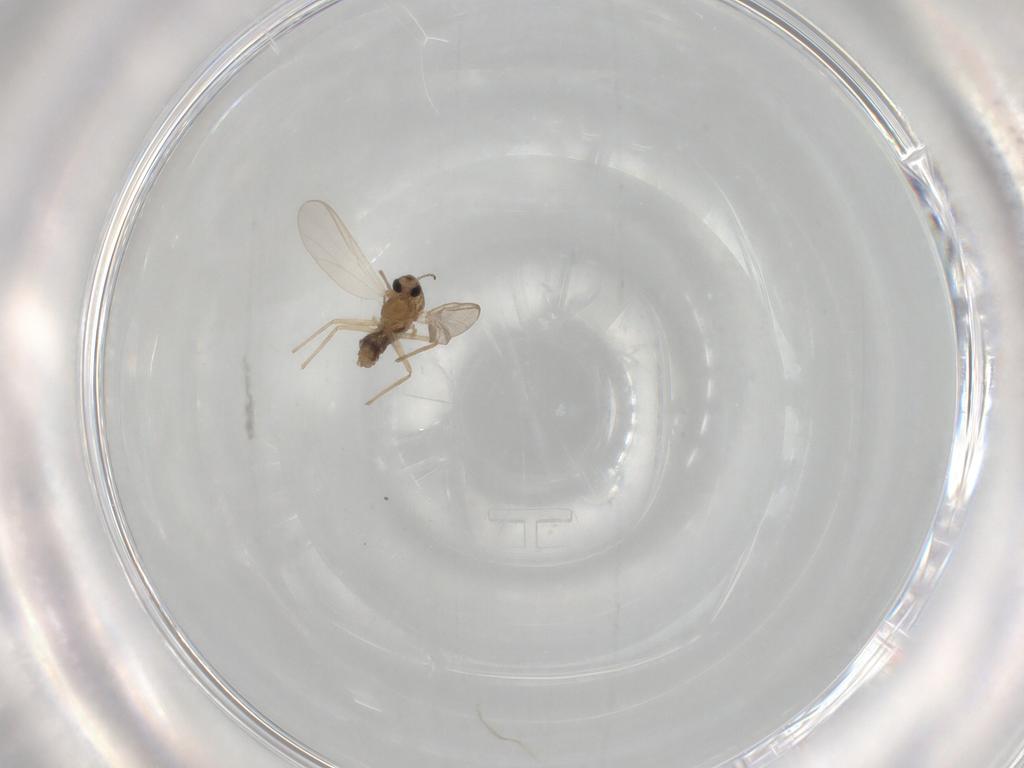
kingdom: Animalia
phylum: Arthropoda
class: Insecta
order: Diptera
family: Chironomidae
